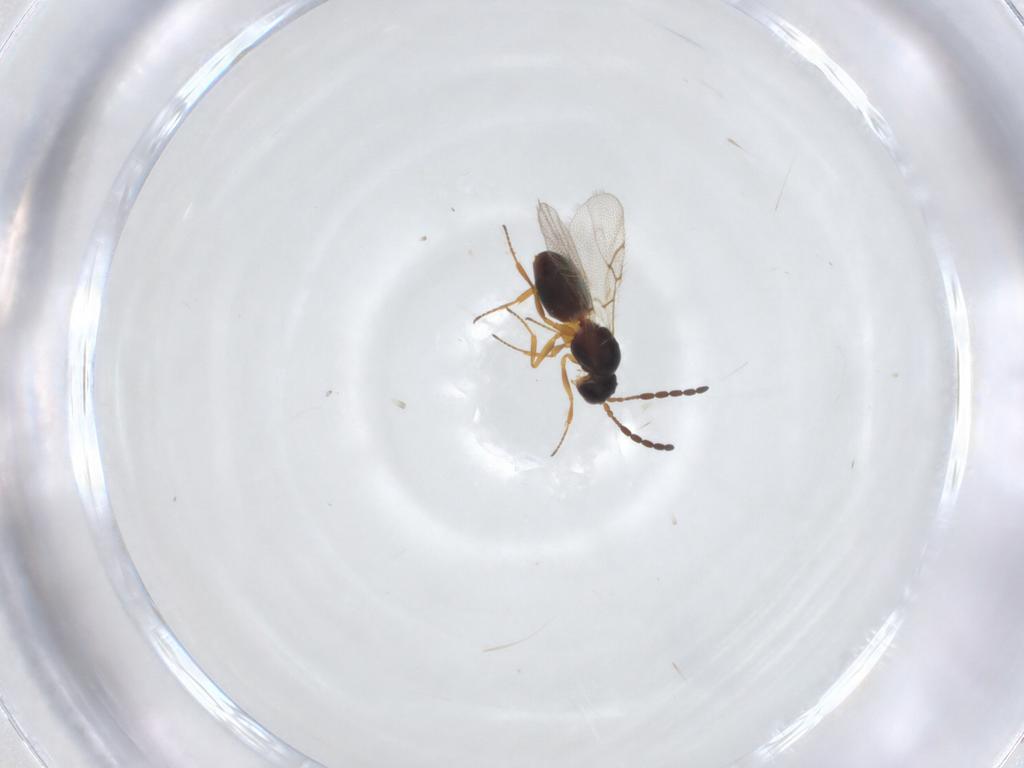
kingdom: Animalia
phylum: Arthropoda
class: Insecta
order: Hymenoptera
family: Figitidae
